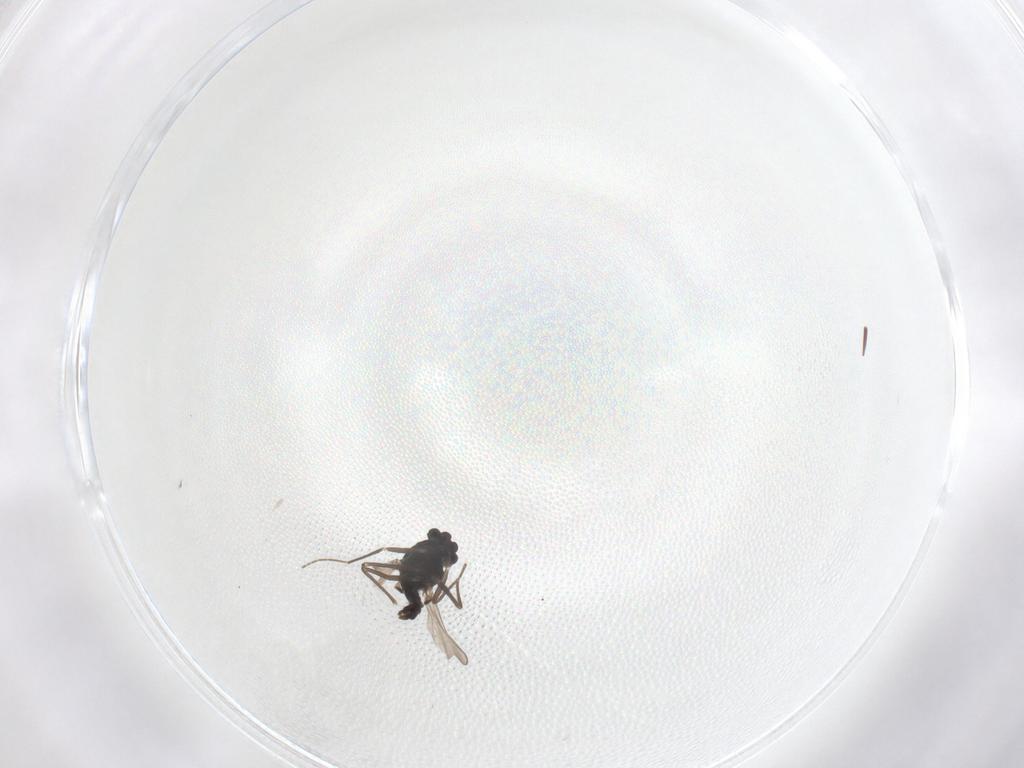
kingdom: Animalia
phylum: Arthropoda
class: Insecta
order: Diptera
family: Chironomidae
